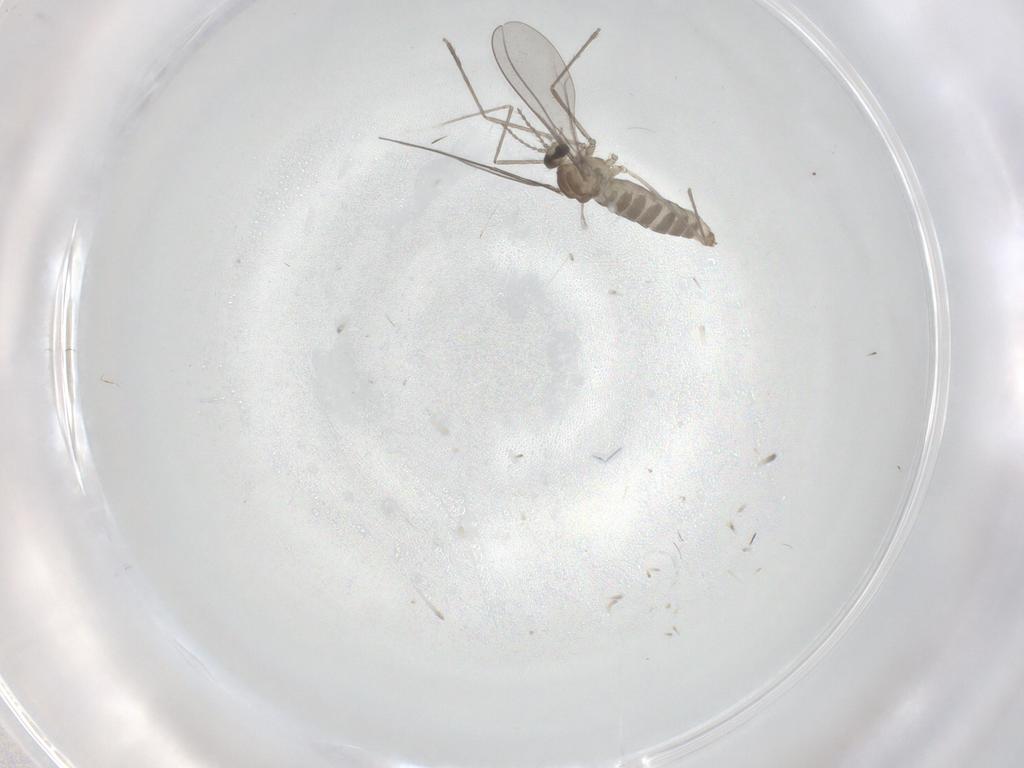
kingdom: Animalia
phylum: Arthropoda
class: Insecta
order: Diptera
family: Cecidomyiidae
